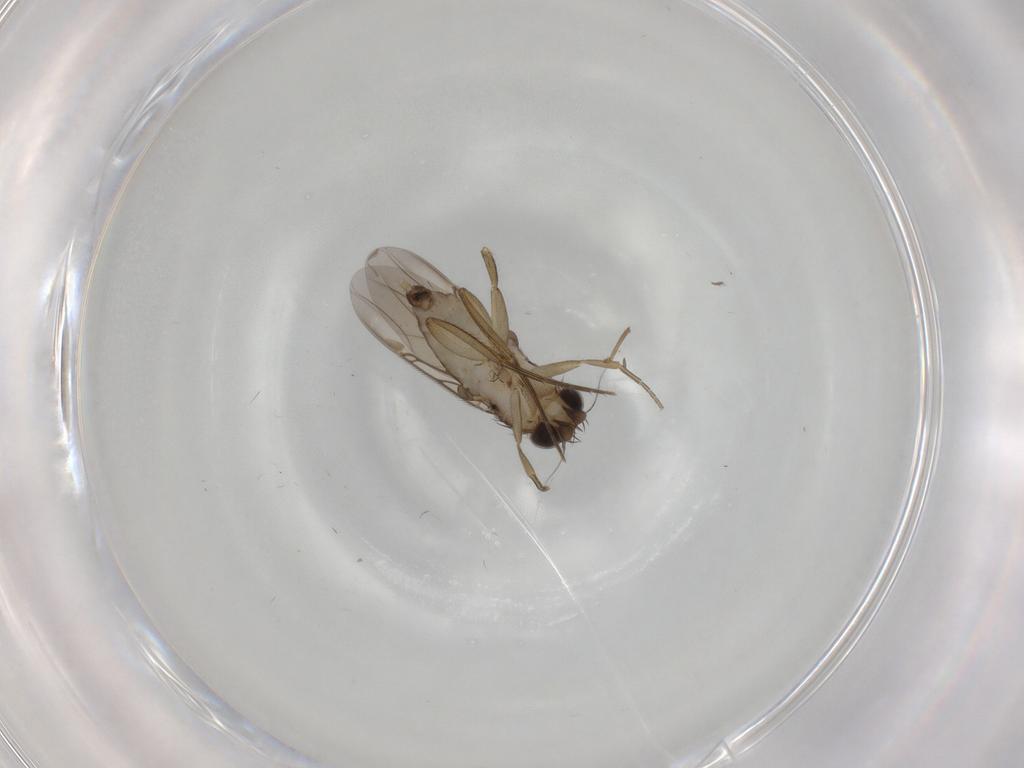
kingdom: Animalia
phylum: Arthropoda
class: Insecta
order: Diptera
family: Phoridae
